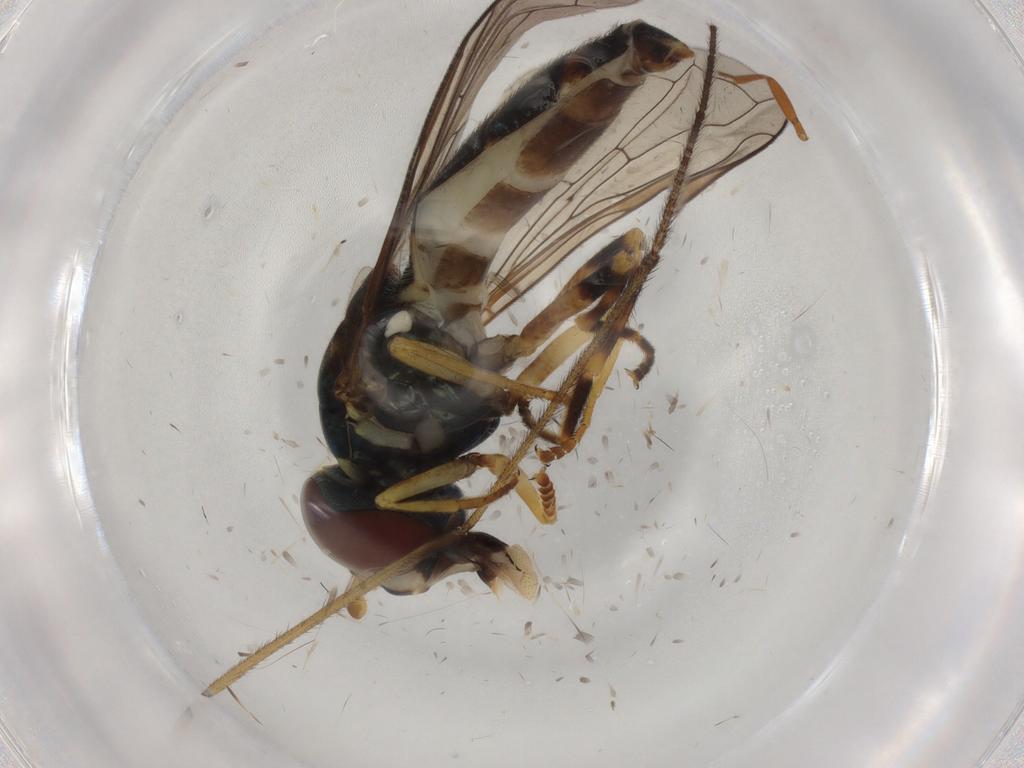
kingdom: Animalia
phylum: Arthropoda
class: Insecta
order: Diptera
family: Syrphidae
